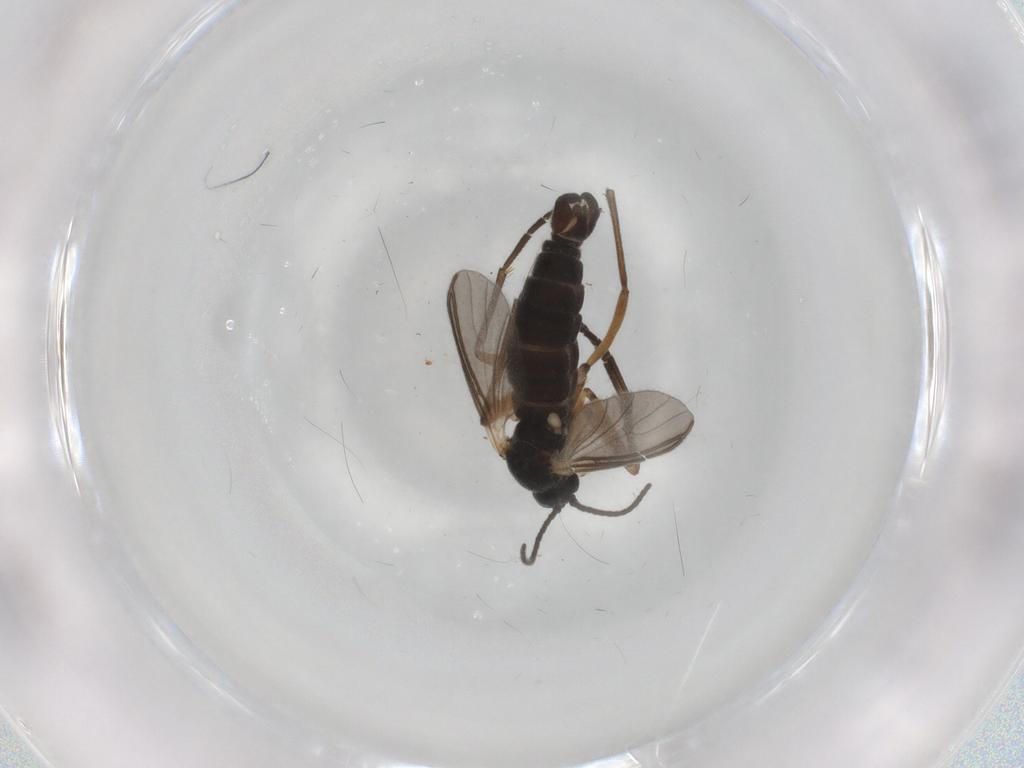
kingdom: Animalia
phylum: Arthropoda
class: Insecta
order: Diptera
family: Sciaridae
